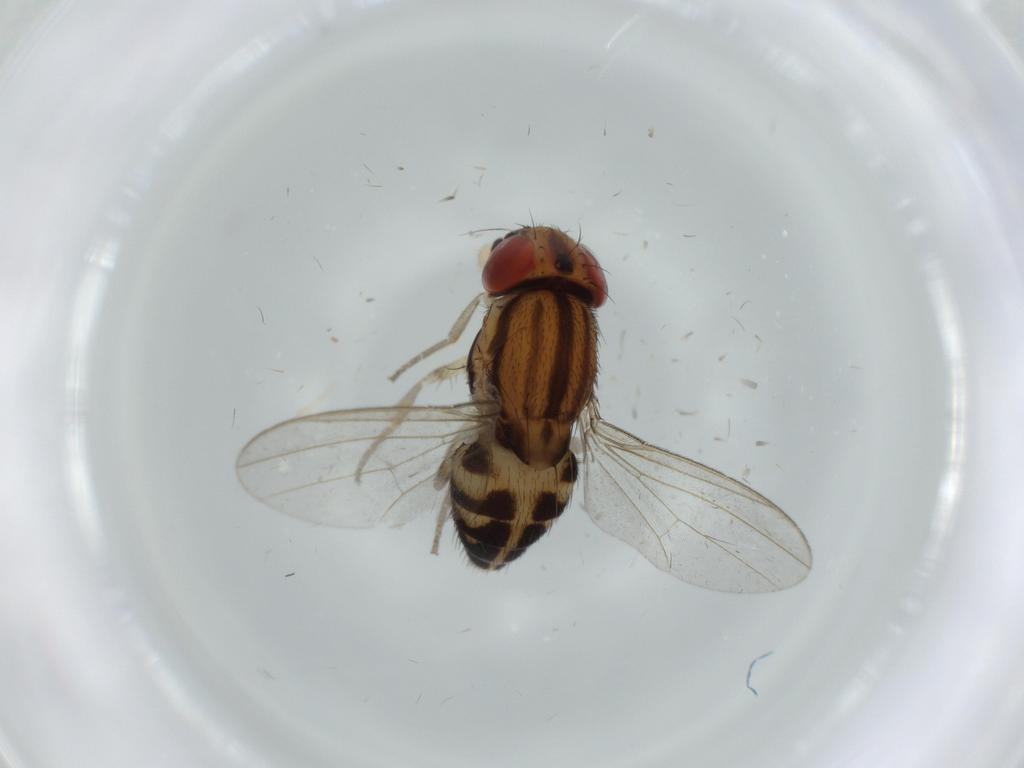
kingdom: Animalia
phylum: Arthropoda
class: Insecta
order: Diptera
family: Drosophilidae
